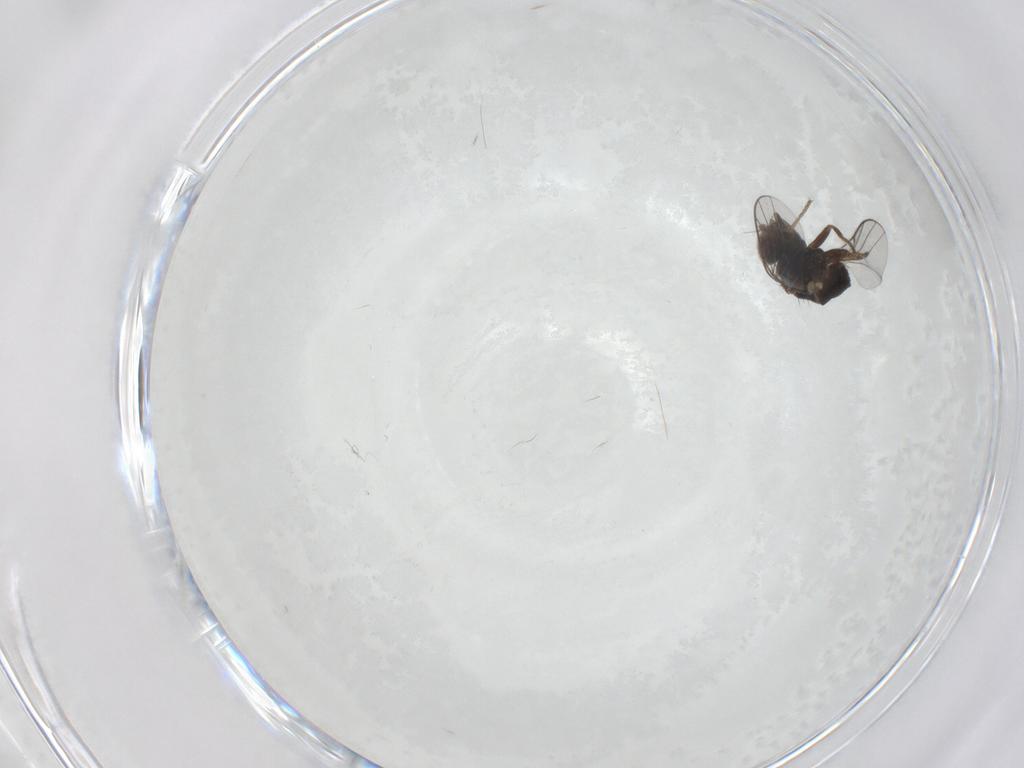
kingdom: Animalia
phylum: Arthropoda
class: Insecta
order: Diptera
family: Chloropidae
